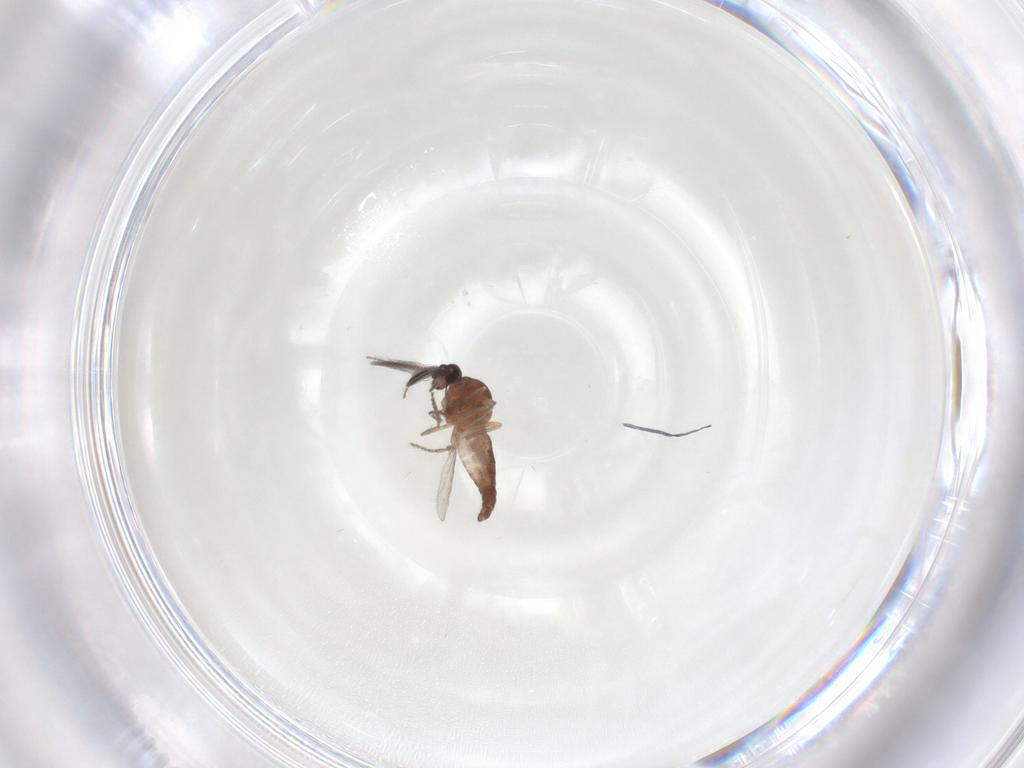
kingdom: Animalia
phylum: Arthropoda
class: Insecta
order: Diptera
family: Ceratopogonidae
